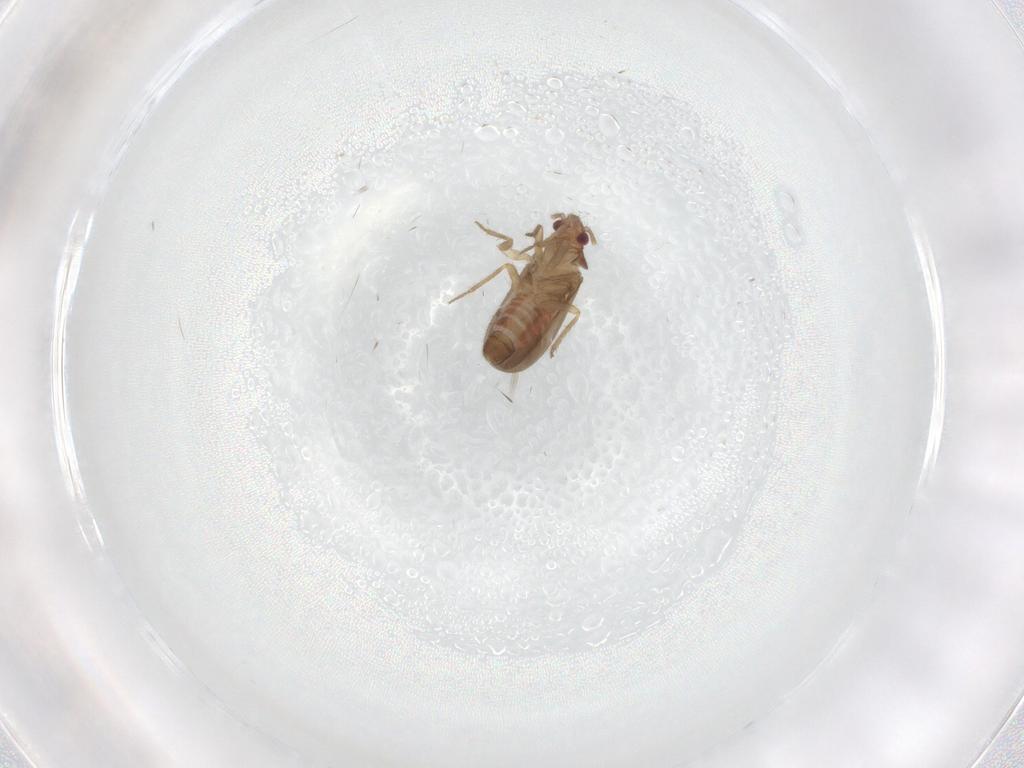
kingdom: Animalia
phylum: Arthropoda
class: Insecta
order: Hemiptera
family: Ceratocombidae
